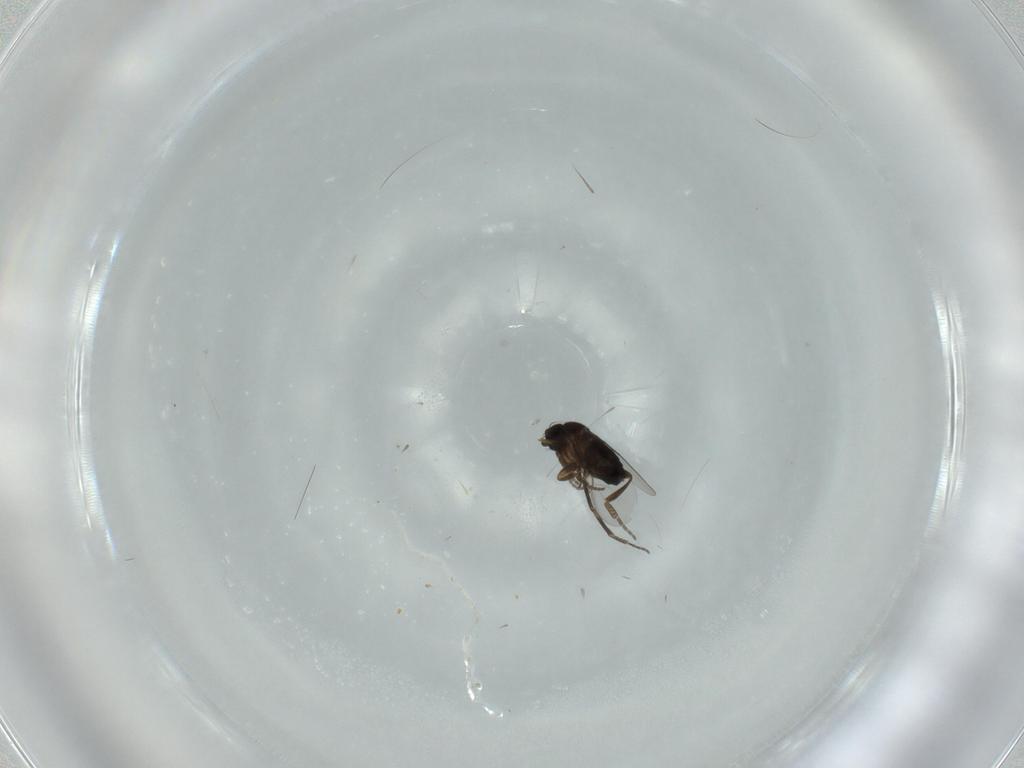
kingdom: Animalia
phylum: Arthropoda
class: Insecta
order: Diptera
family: Phoridae
